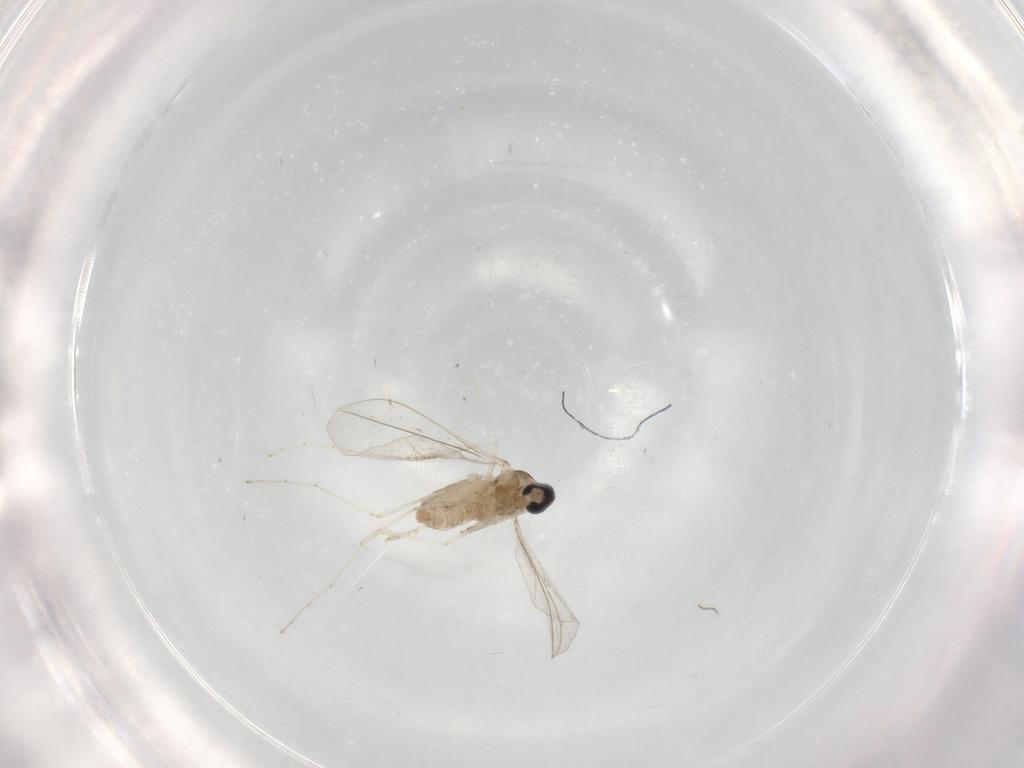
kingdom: Animalia
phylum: Arthropoda
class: Insecta
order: Diptera
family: Cecidomyiidae
